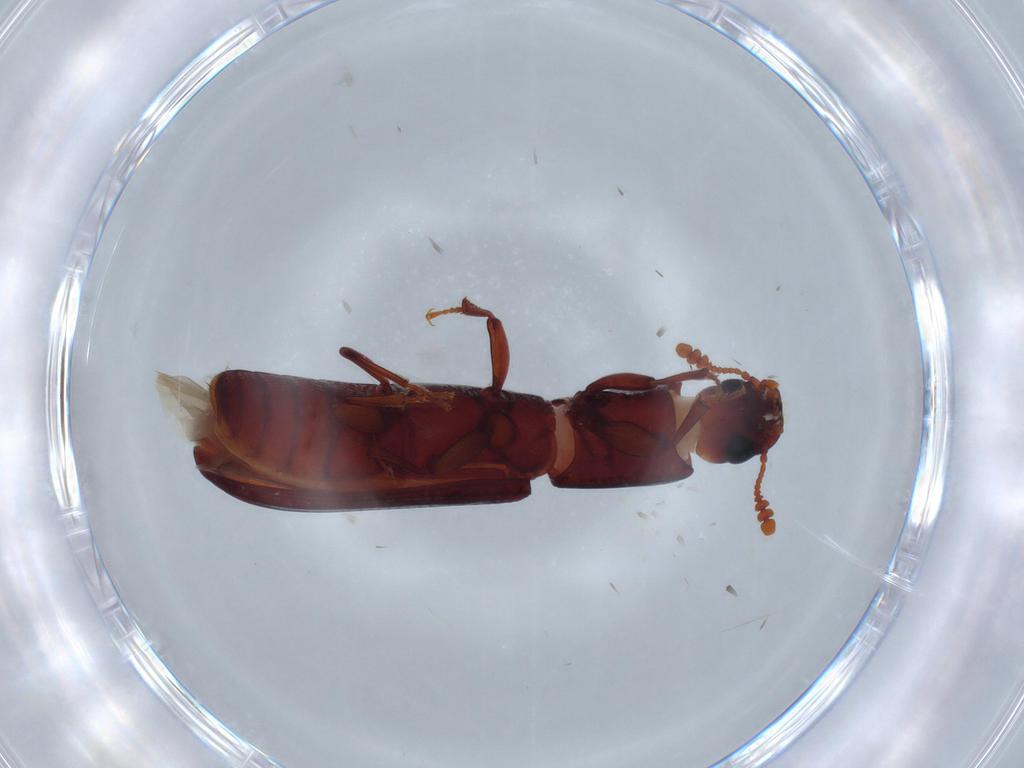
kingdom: Animalia
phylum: Arthropoda
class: Insecta
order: Coleoptera
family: Zopheridae
